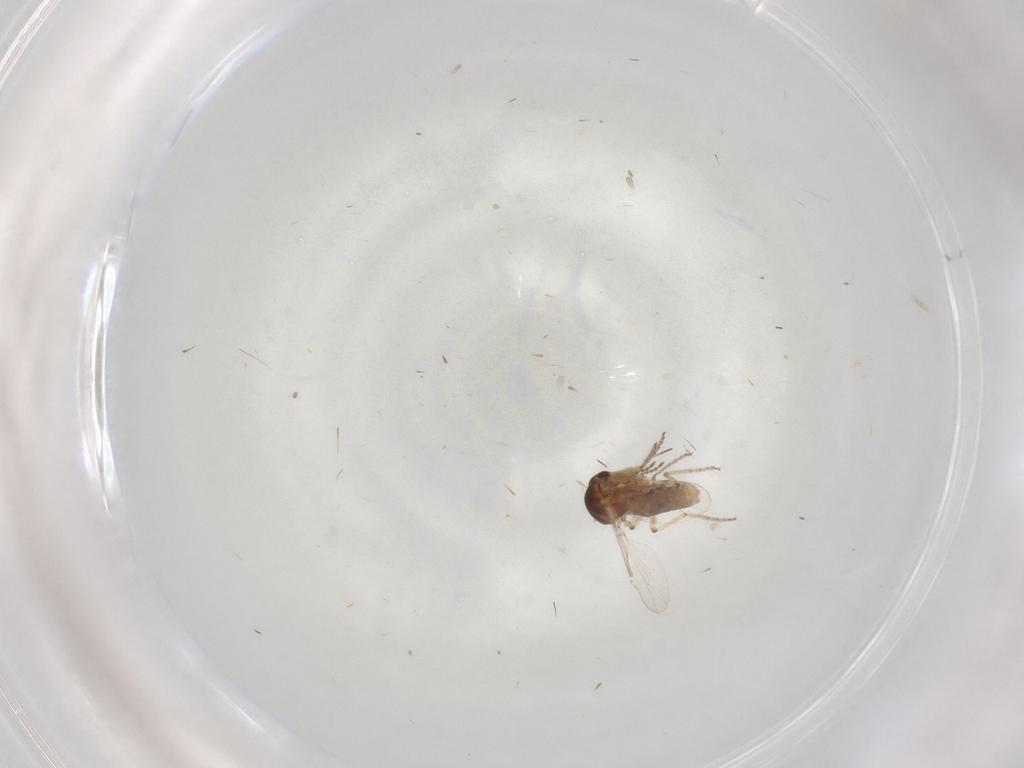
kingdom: Animalia
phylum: Arthropoda
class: Insecta
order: Diptera
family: Ceratopogonidae
